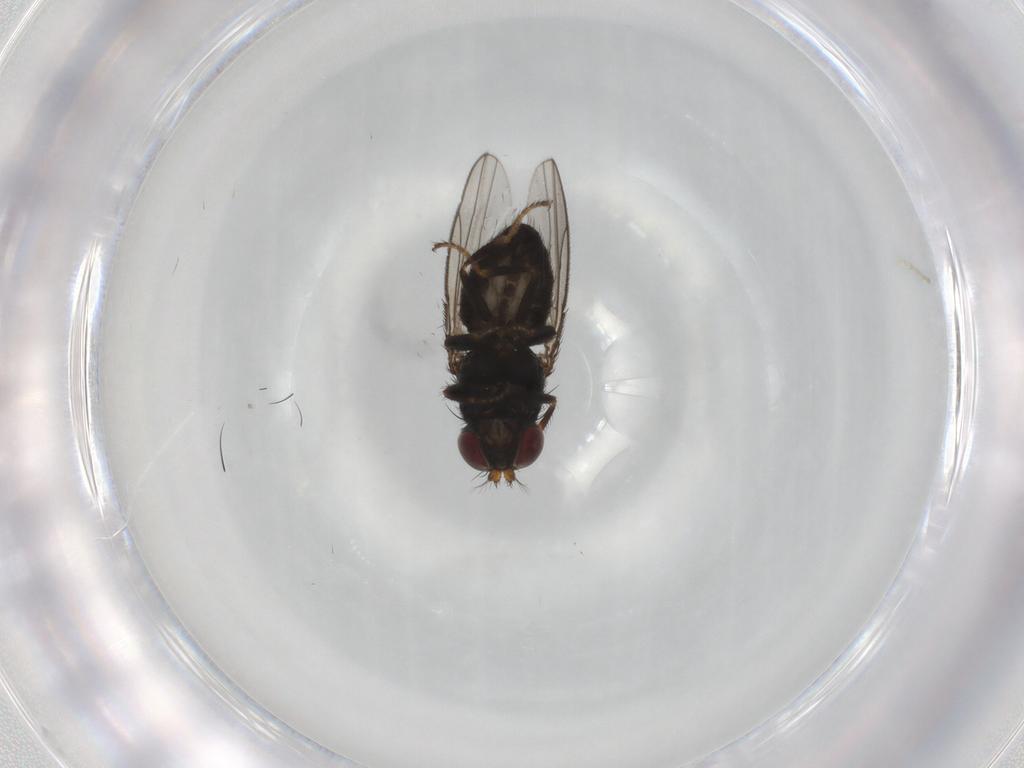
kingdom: Animalia
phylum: Arthropoda
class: Insecta
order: Diptera
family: Ephydridae
